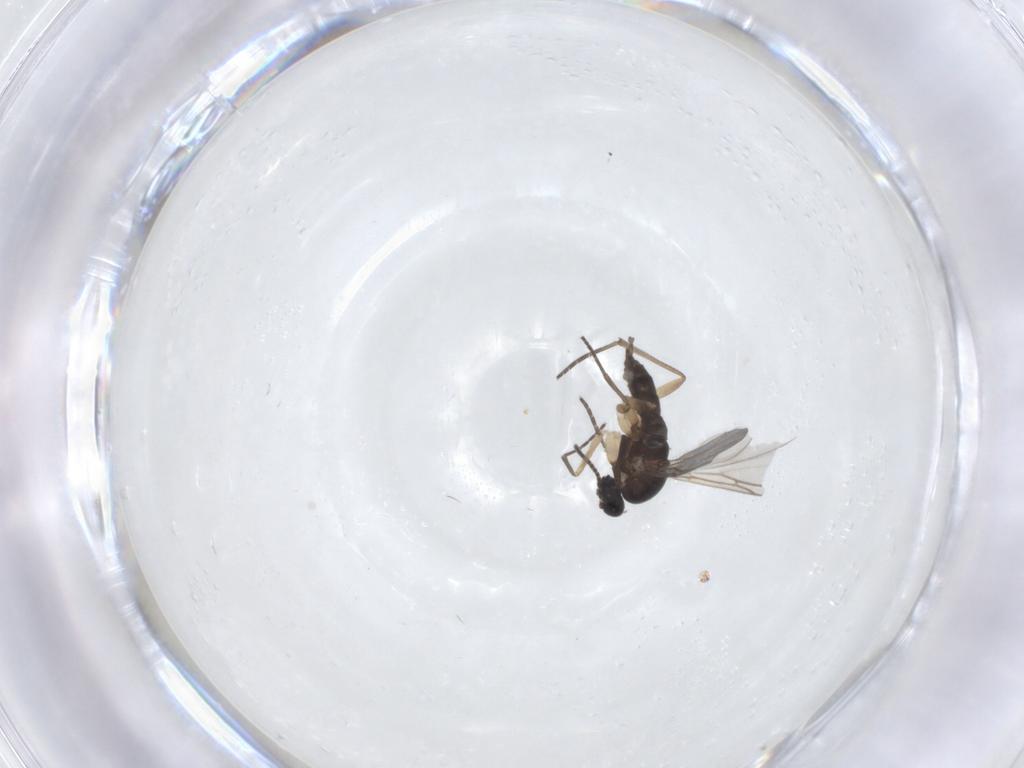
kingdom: Animalia
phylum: Arthropoda
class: Insecta
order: Diptera
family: Sciaridae
